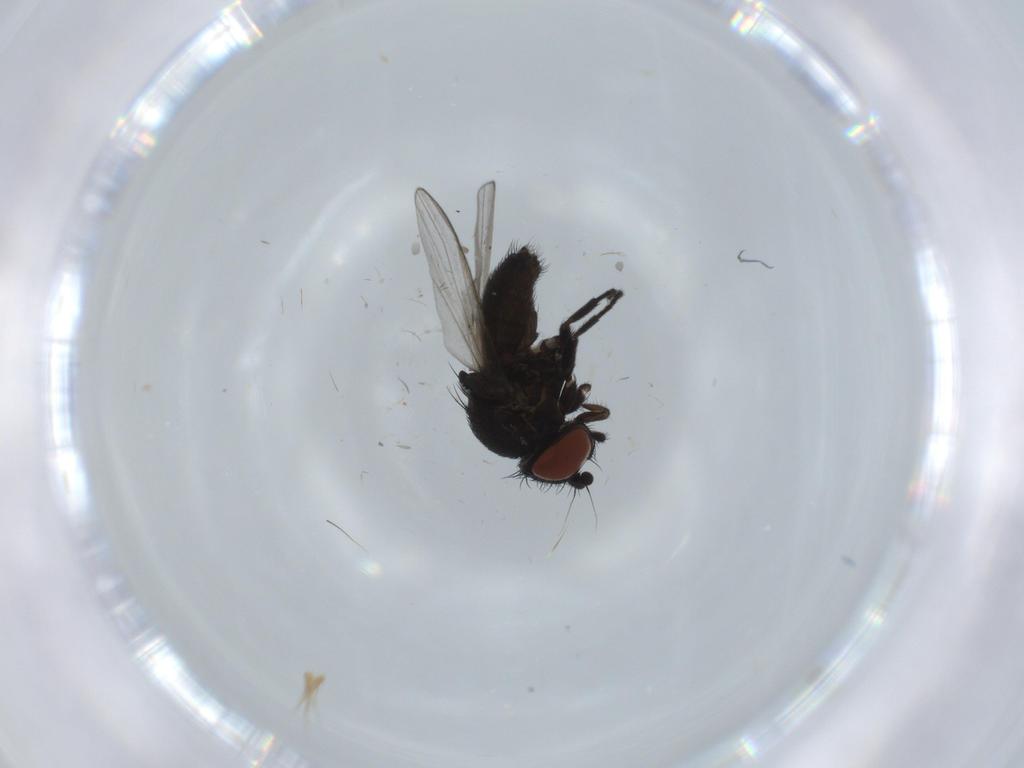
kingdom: Animalia
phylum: Arthropoda
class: Insecta
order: Diptera
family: Milichiidae
